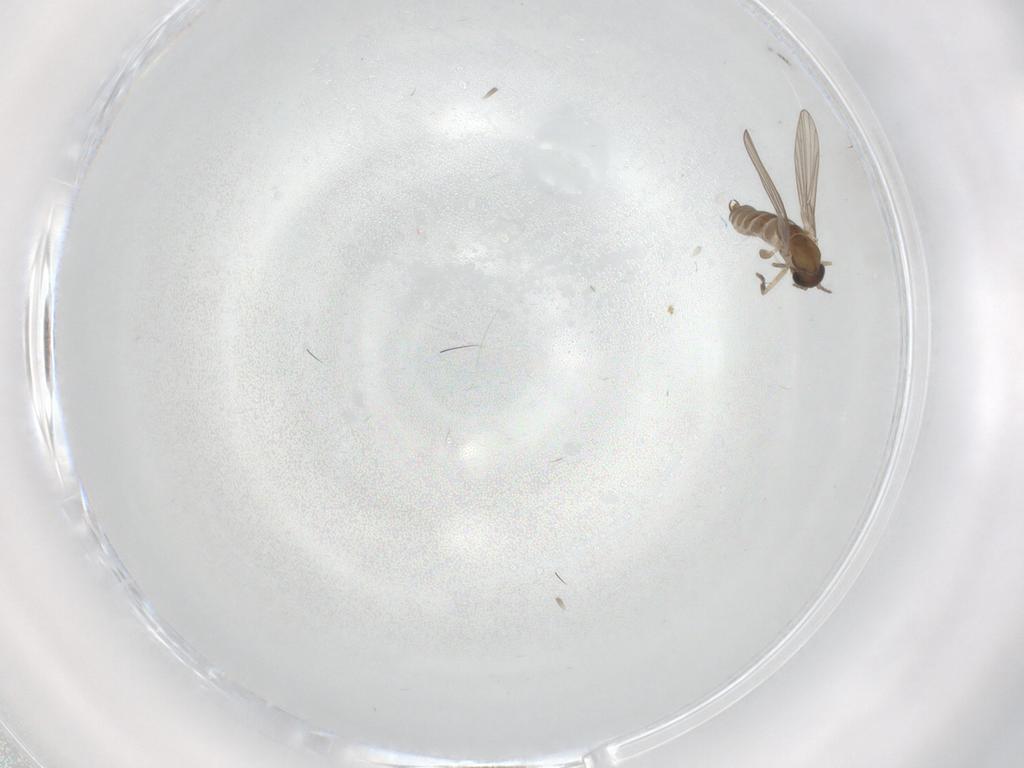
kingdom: Animalia
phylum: Arthropoda
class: Insecta
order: Diptera
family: Cecidomyiidae
